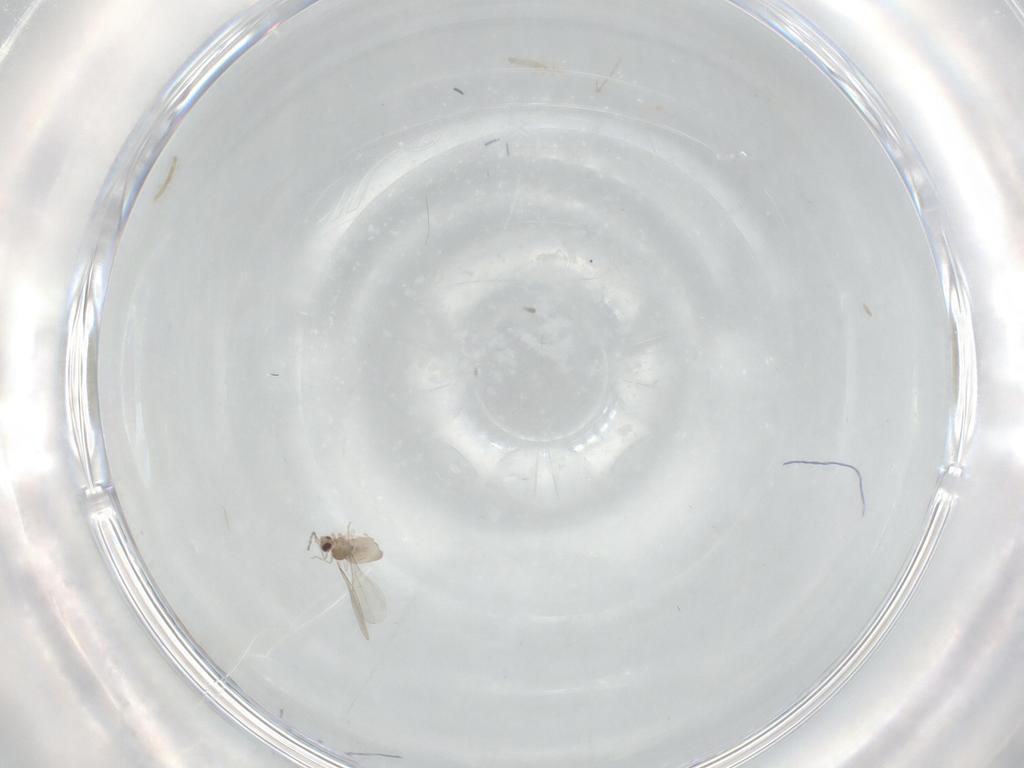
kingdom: Animalia
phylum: Arthropoda
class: Insecta
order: Diptera
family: Cecidomyiidae
